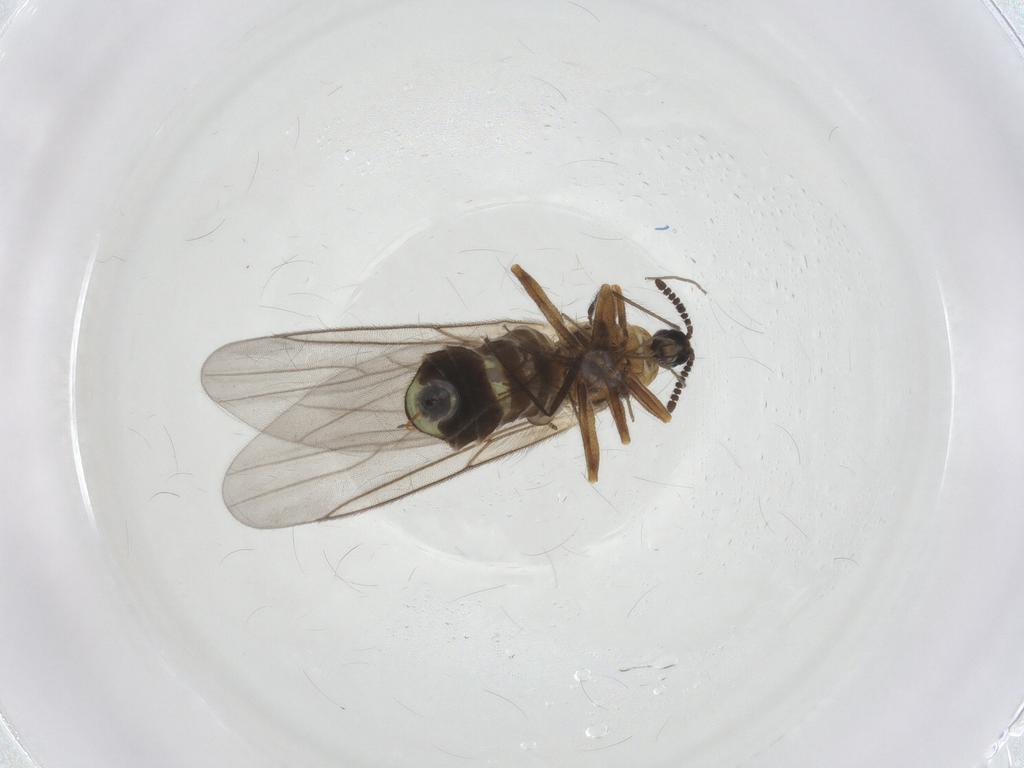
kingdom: Animalia
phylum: Arthropoda
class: Insecta
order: Diptera
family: Scatopsidae
